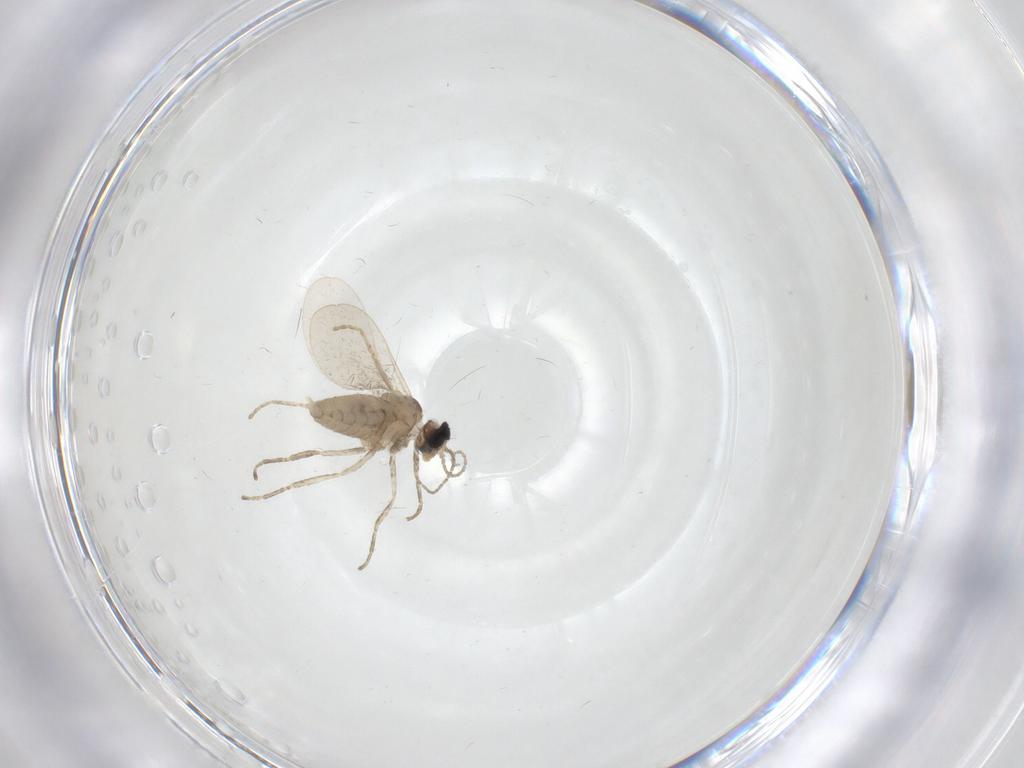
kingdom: Animalia
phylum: Arthropoda
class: Insecta
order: Diptera
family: Cecidomyiidae
